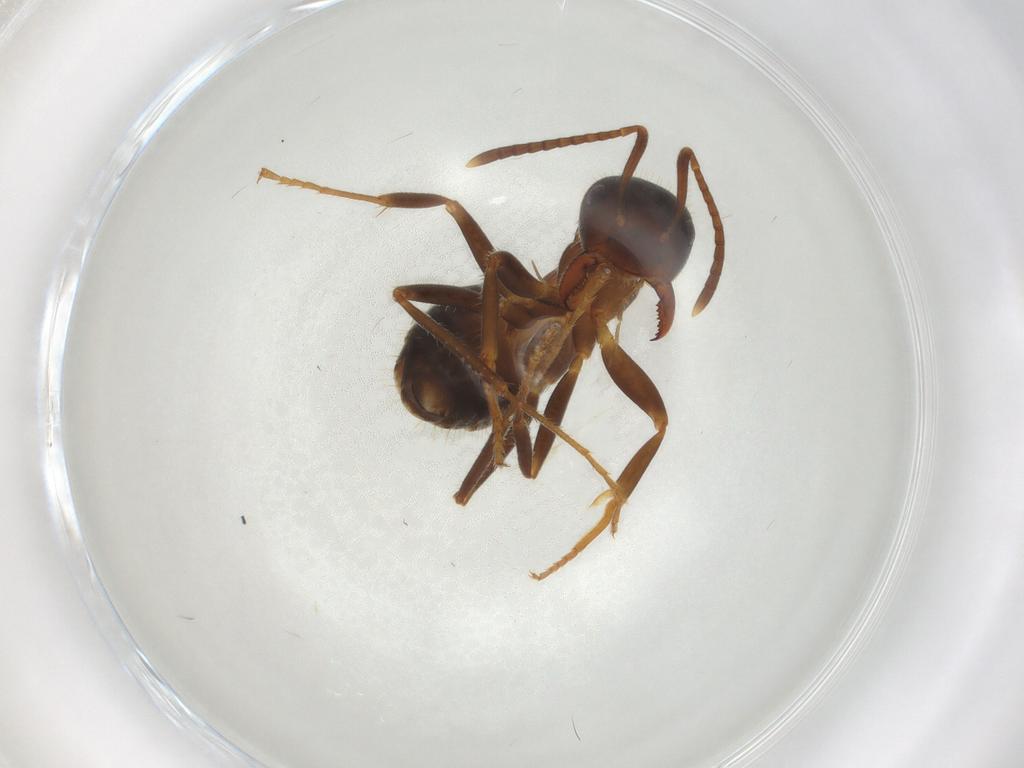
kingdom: Animalia
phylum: Arthropoda
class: Insecta
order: Hymenoptera
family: Formicidae
